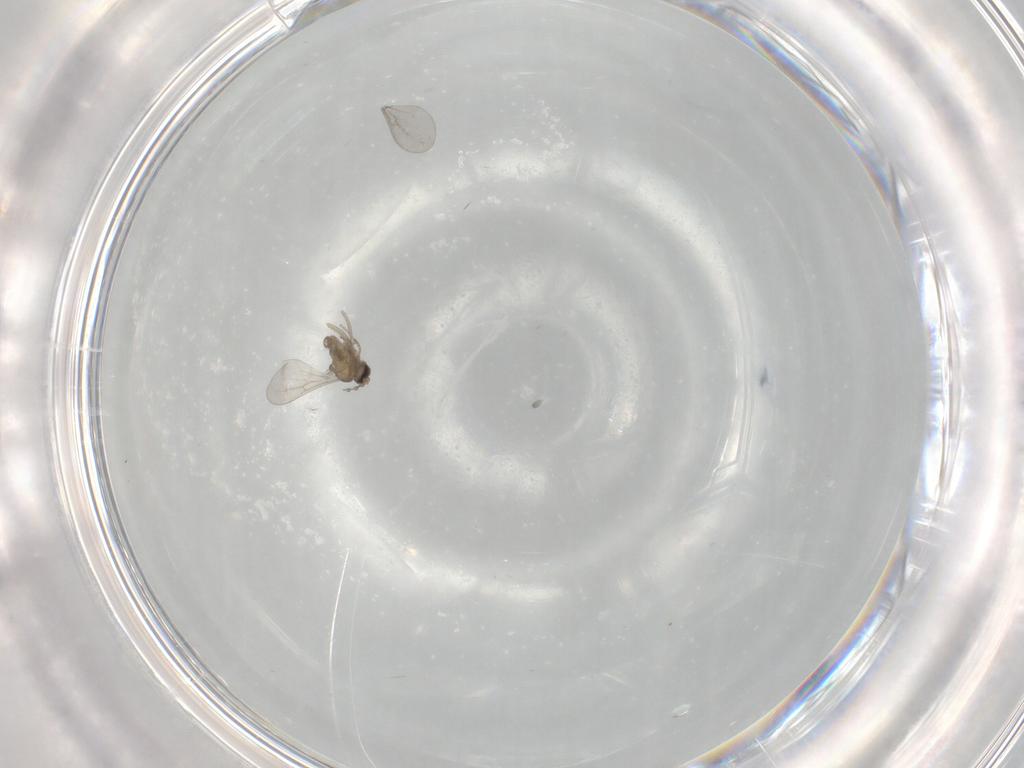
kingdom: Animalia
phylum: Arthropoda
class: Insecta
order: Diptera
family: Cecidomyiidae
